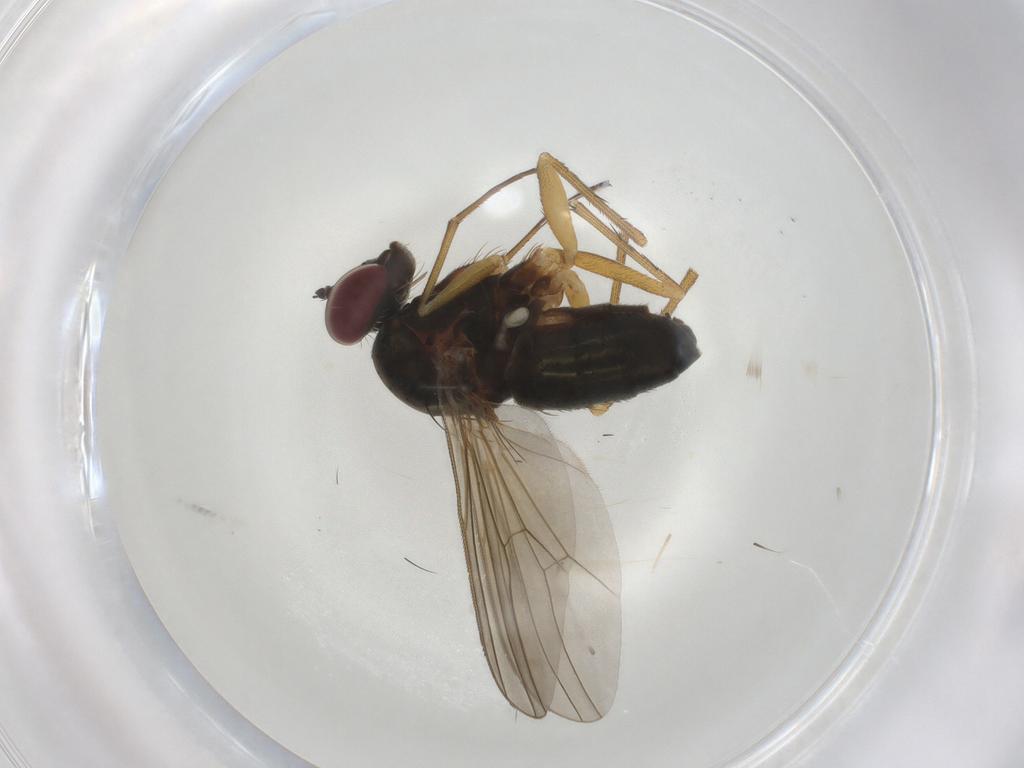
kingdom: Animalia
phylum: Arthropoda
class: Insecta
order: Diptera
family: Dolichopodidae
